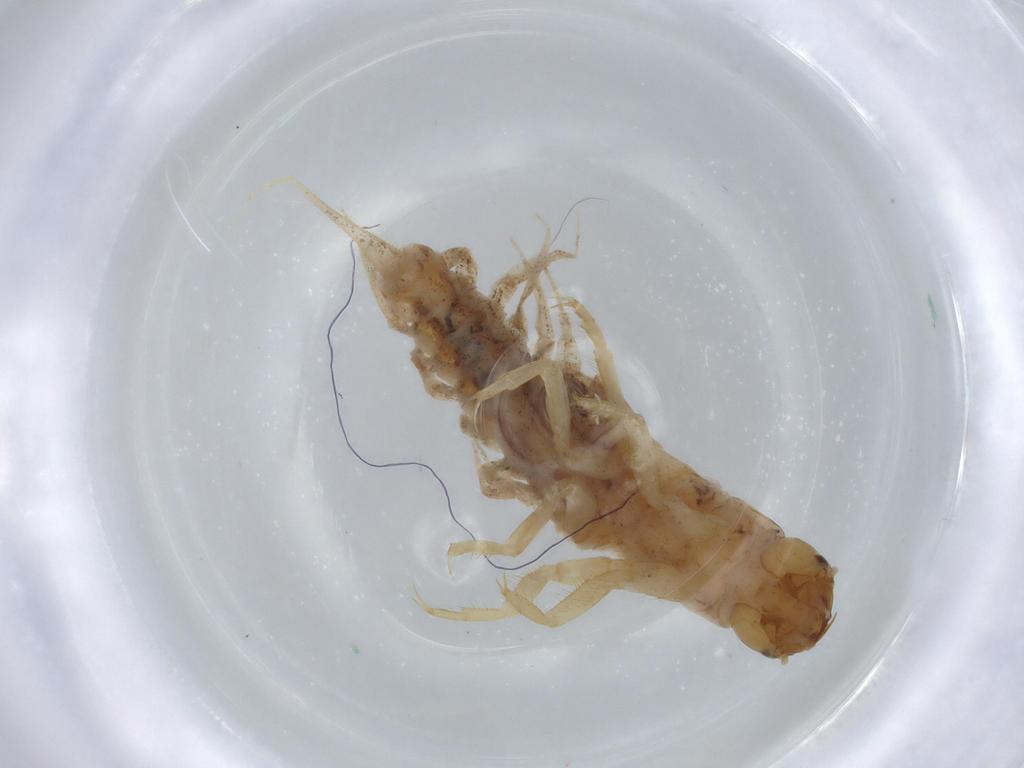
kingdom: Animalia
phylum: Arthropoda
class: Insecta
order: Megaloptera
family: Sialidae
